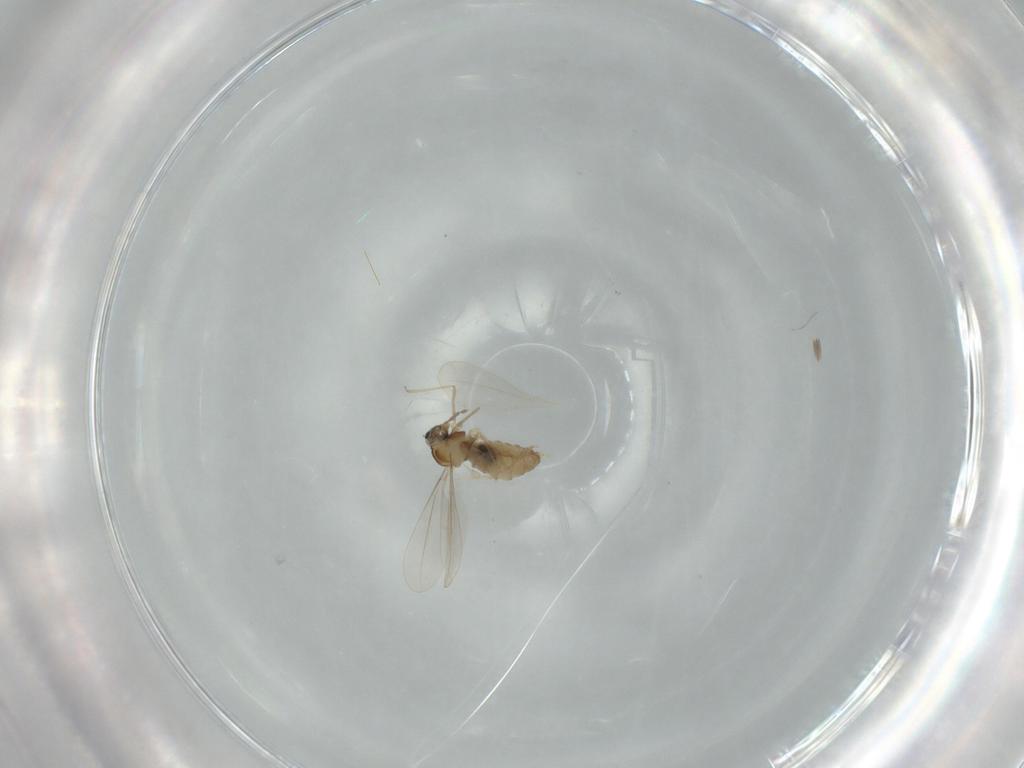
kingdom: Animalia
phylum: Arthropoda
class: Insecta
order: Diptera
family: Cecidomyiidae
